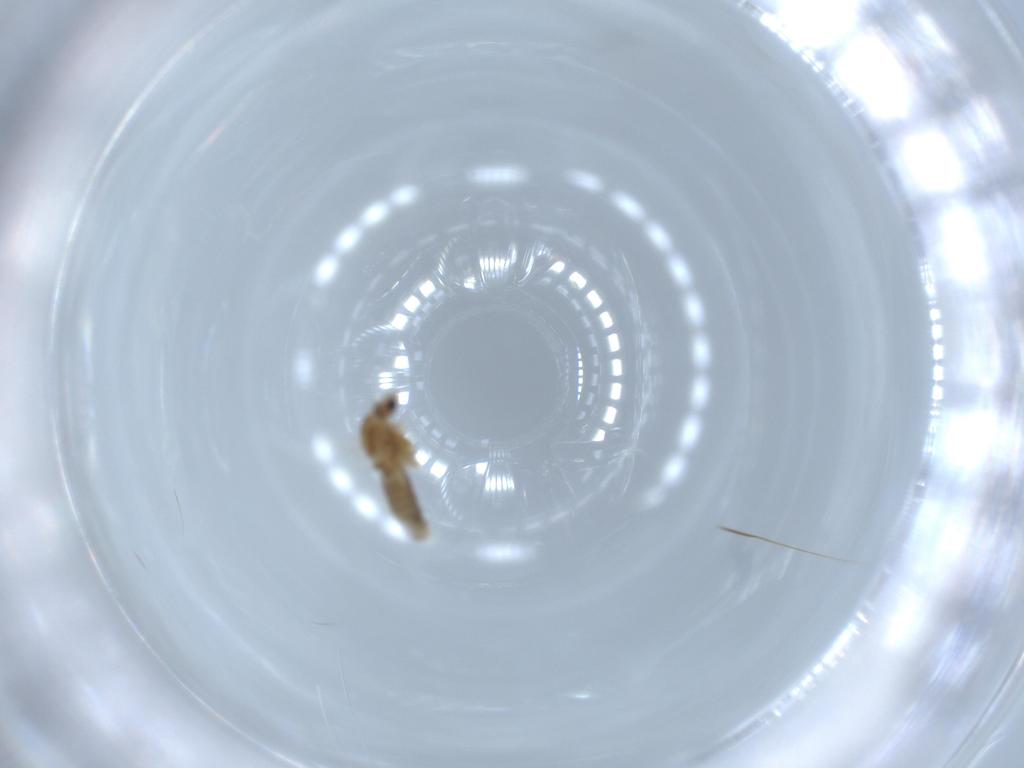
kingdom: Animalia
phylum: Arthropoda
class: Insecta
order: Diptera
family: Chironomidae
